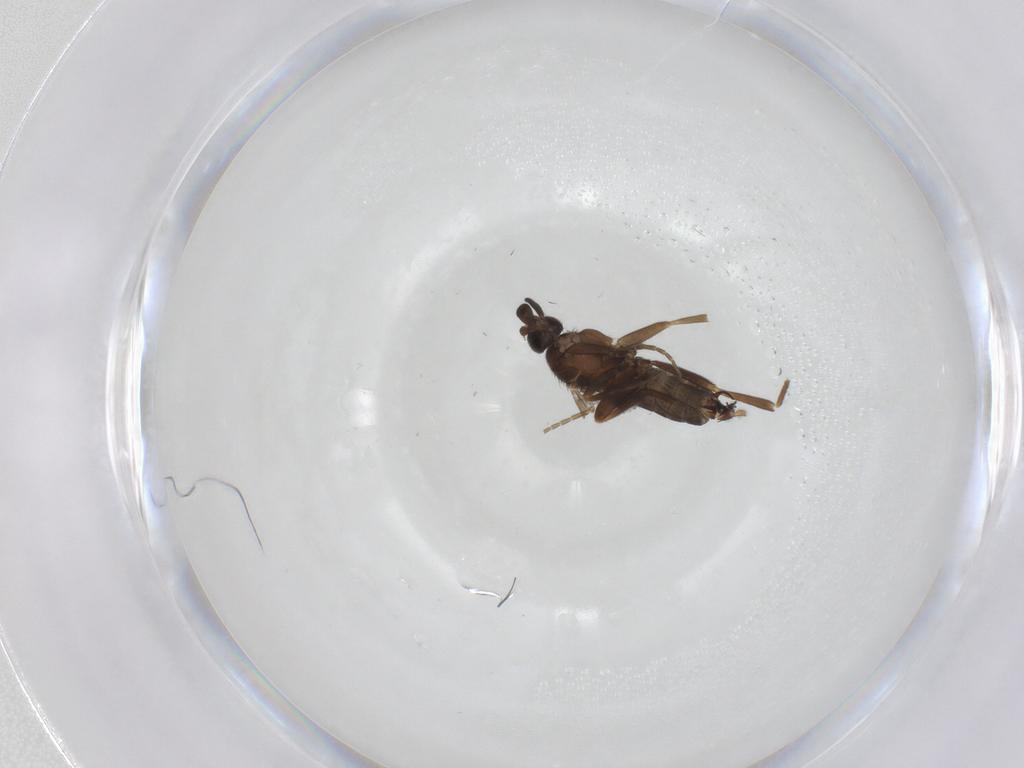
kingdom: Animalia
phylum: Arthropoda
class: Insecta
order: Diptera
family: Phoridae
